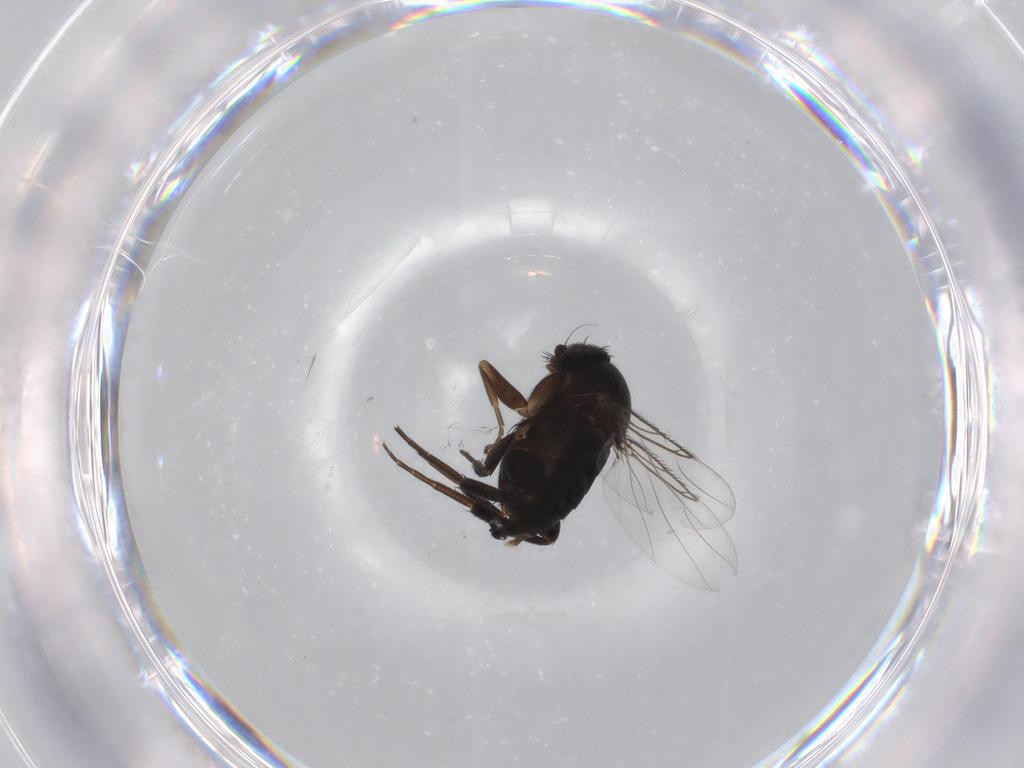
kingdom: Animalia
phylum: Arthropoda
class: Insecta
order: Diptera
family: Phoridae
